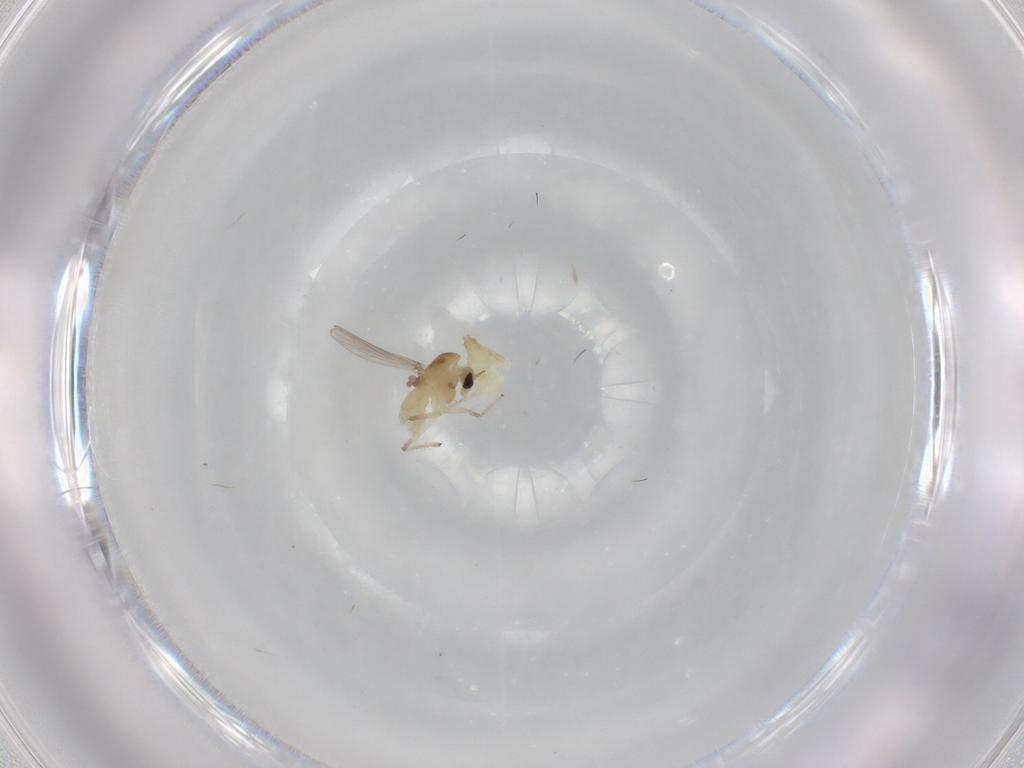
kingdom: Animalia
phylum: Arthropoda
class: Insecta
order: Diptera
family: Chironomidae
